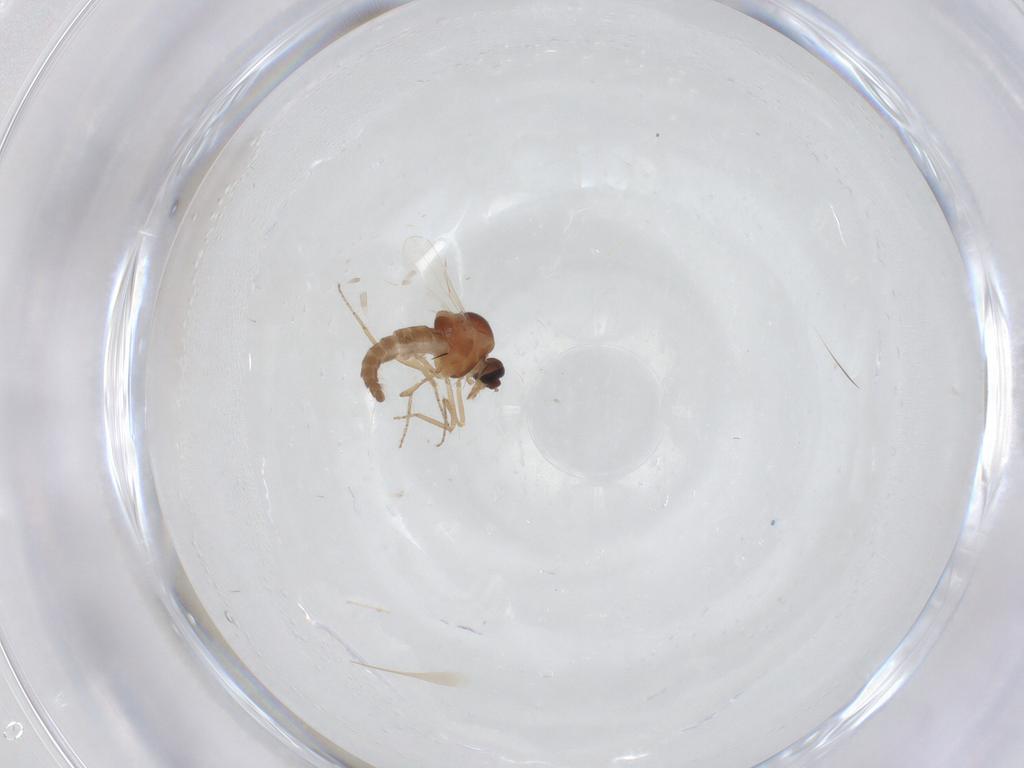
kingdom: Animalia
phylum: Arthropoda
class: Insecta
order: Diptera
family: Ceratopogonidae
